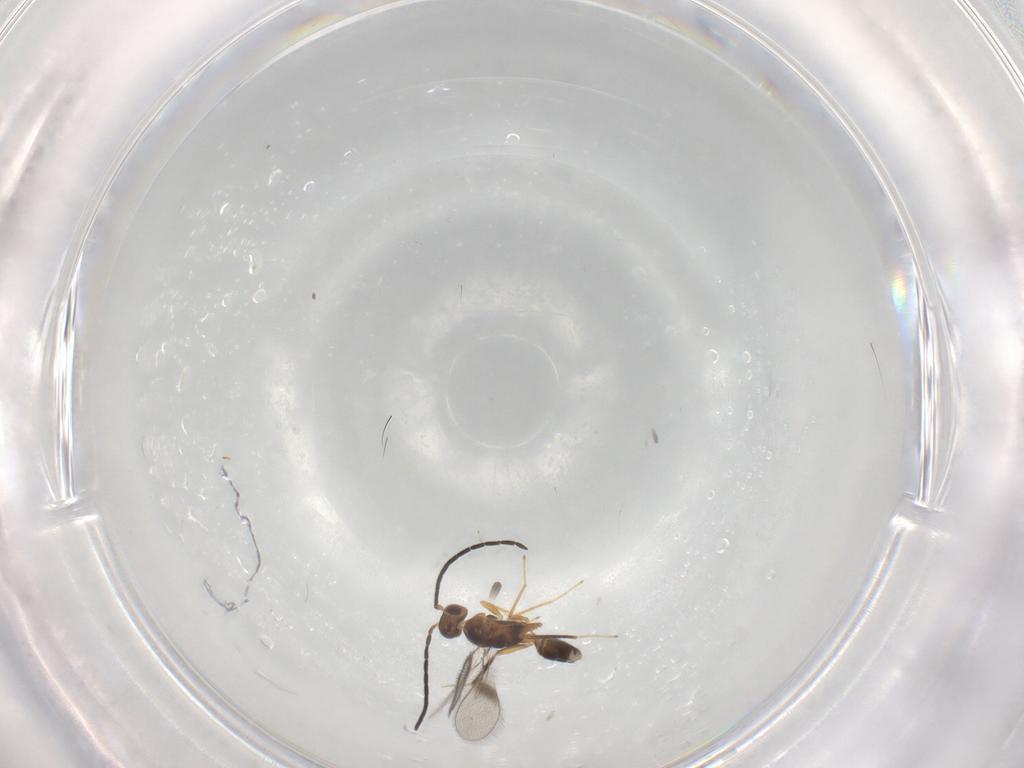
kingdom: Animalia
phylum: Arthropoda
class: Insecta
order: Hymenoptera
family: Mymaridae
